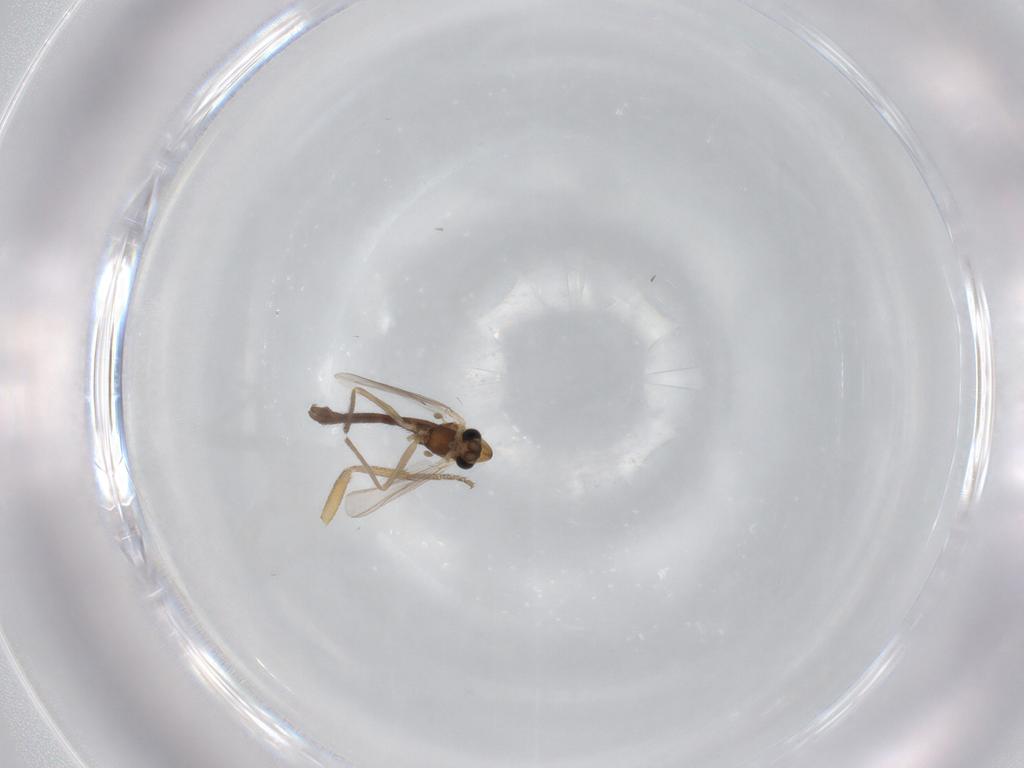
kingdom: Animalia
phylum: Arthropoda
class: Insecta
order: Diptera
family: Chironomidae
